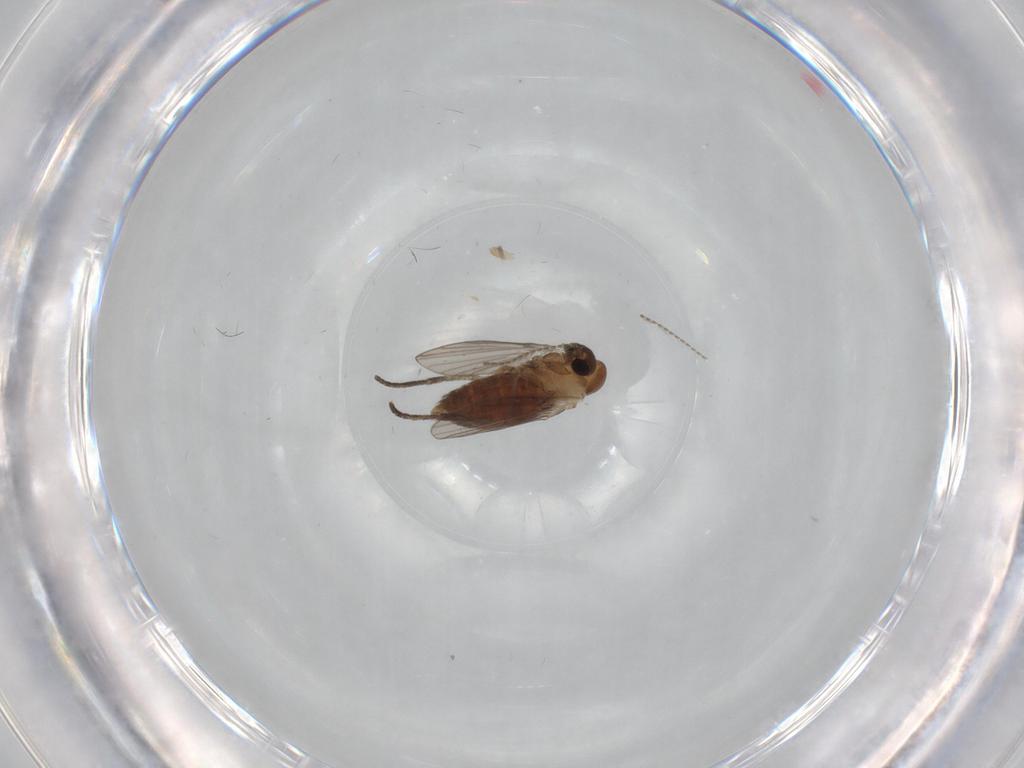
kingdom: Animalia
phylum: Arthropoda
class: Insecta
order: Diptera
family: Psychodidae
